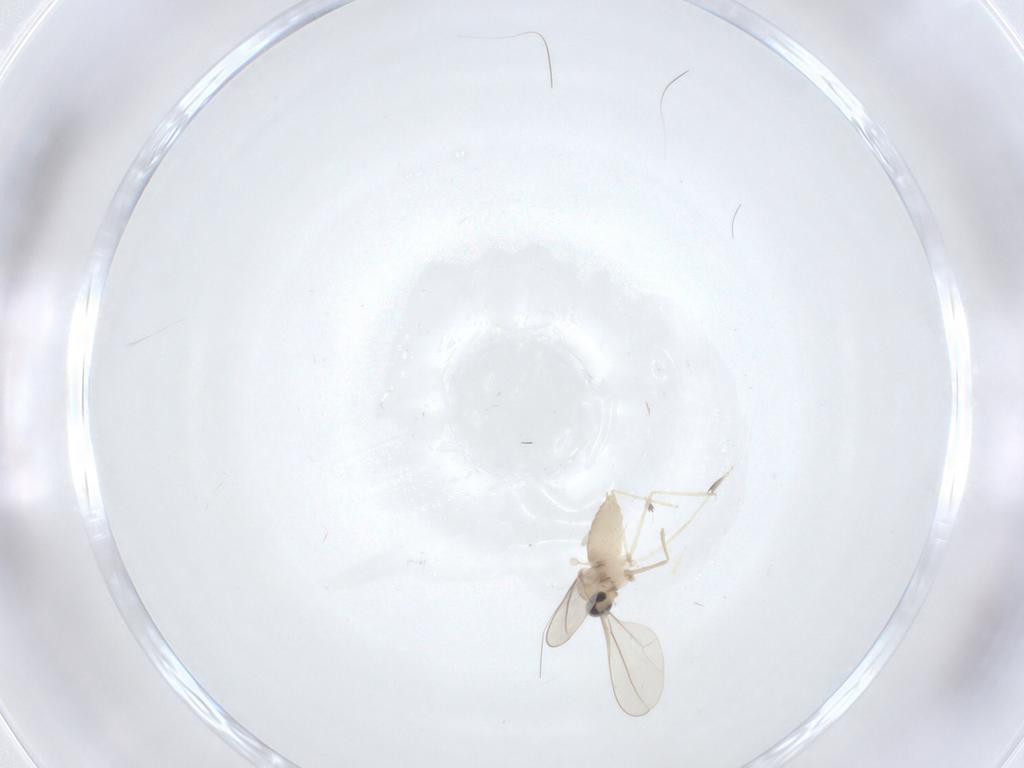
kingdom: Animalia
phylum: Arthropoda
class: Insecta
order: Diptera
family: Cecidomyiidae
